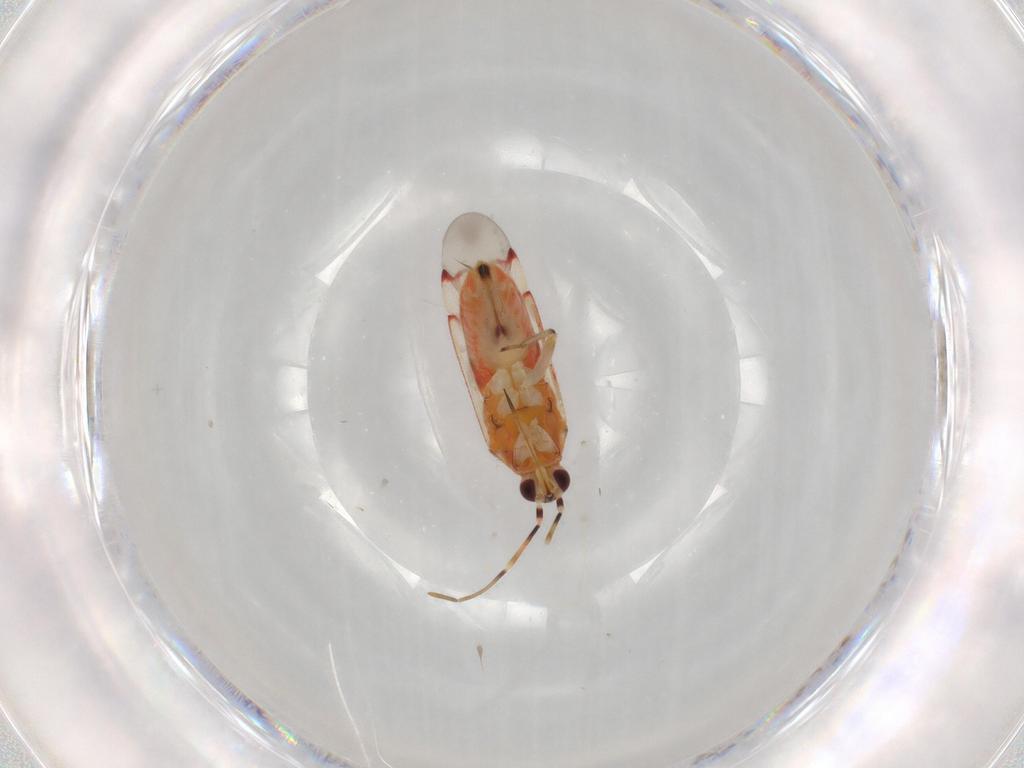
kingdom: Animalia
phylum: Arthropoda
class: Insecta
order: Hemiptera
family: Miridae
